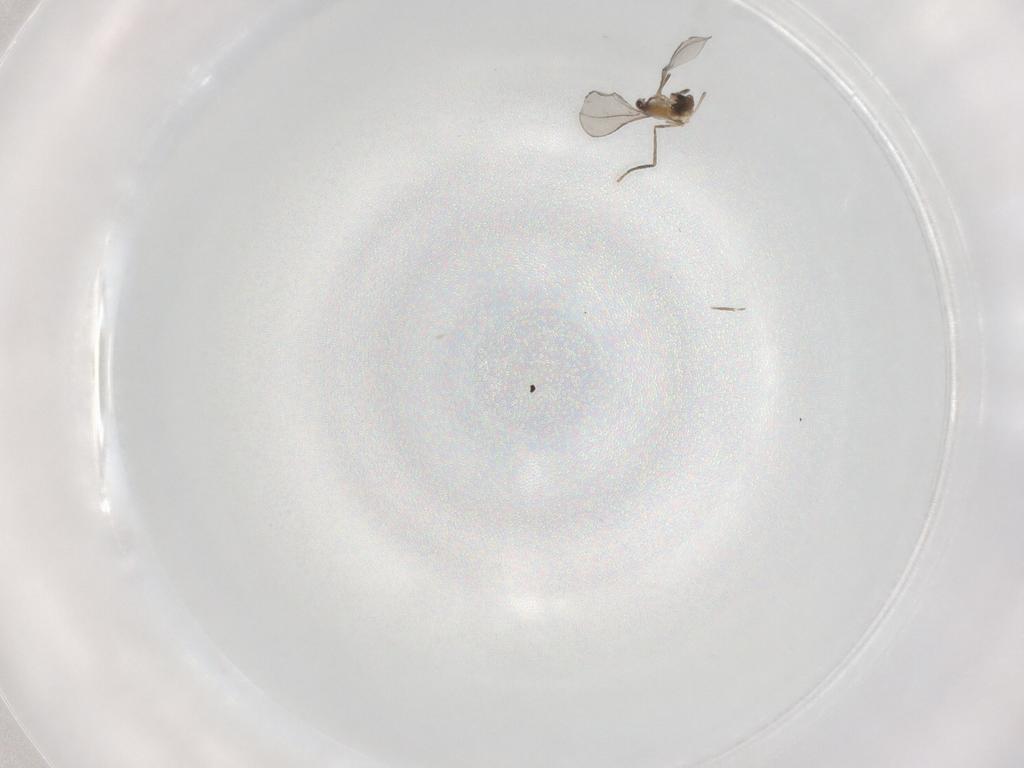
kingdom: Animalia
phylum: Arthropoda
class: Insecta
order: Diptera
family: Cecidomyiidae
